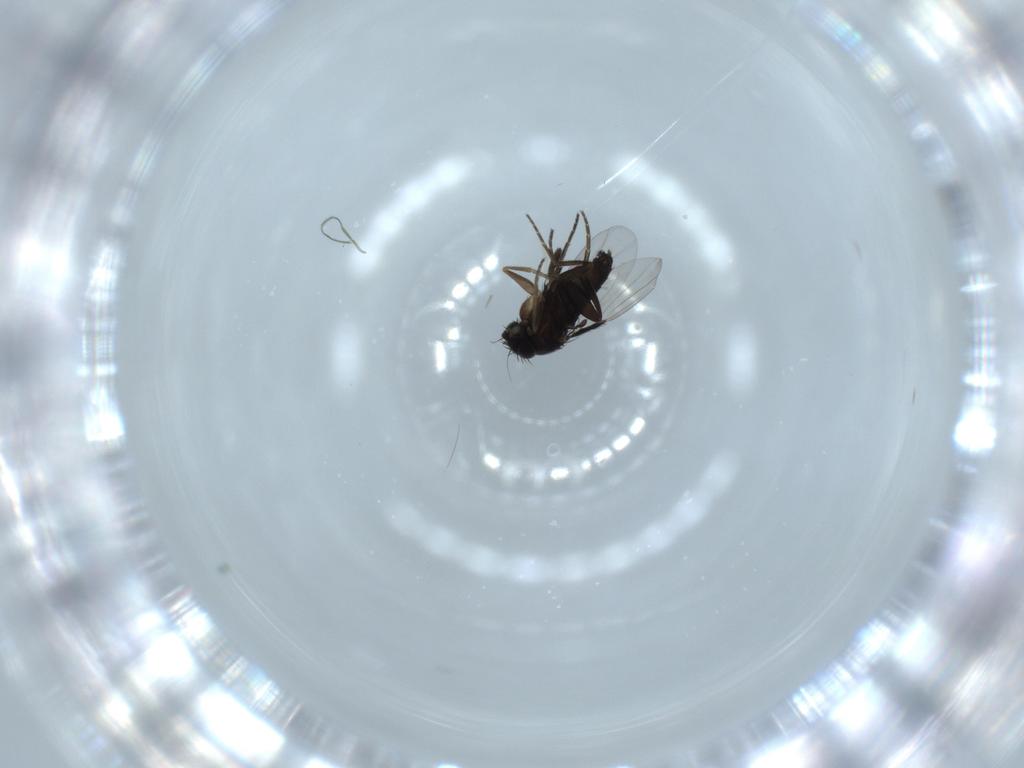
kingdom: Animalia
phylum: Arthropoda
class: Insecta
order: Diptera
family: Phoridae
